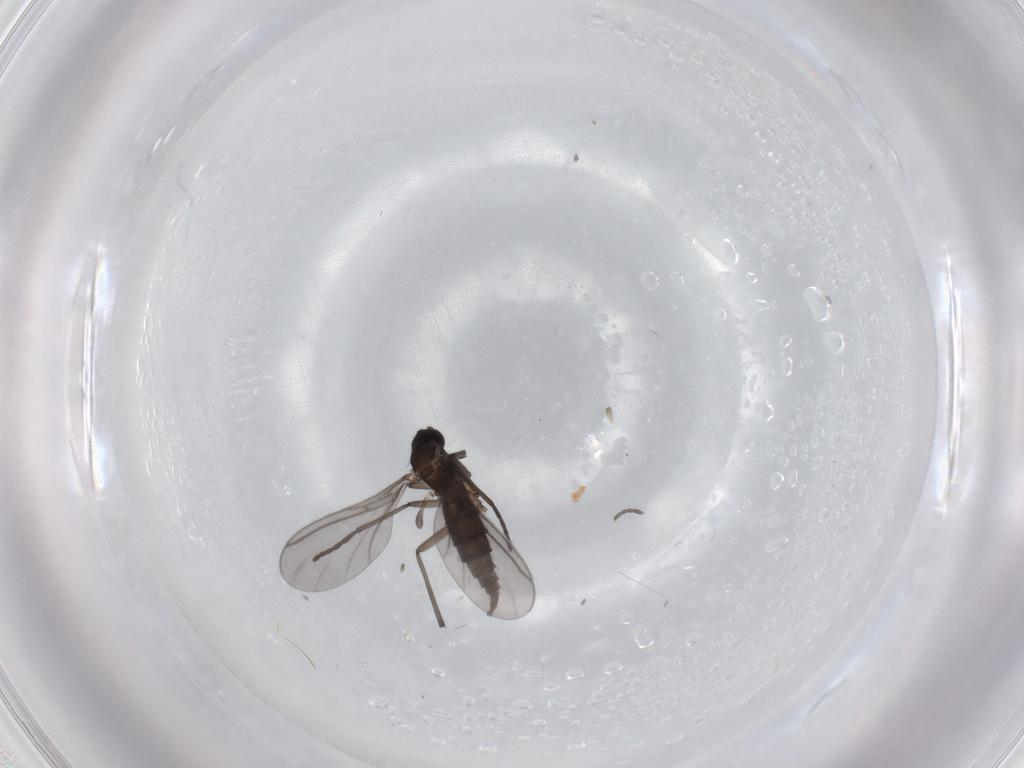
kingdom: Animalia
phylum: Arthropoda
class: Insecta
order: Diptera
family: Sciaridae
